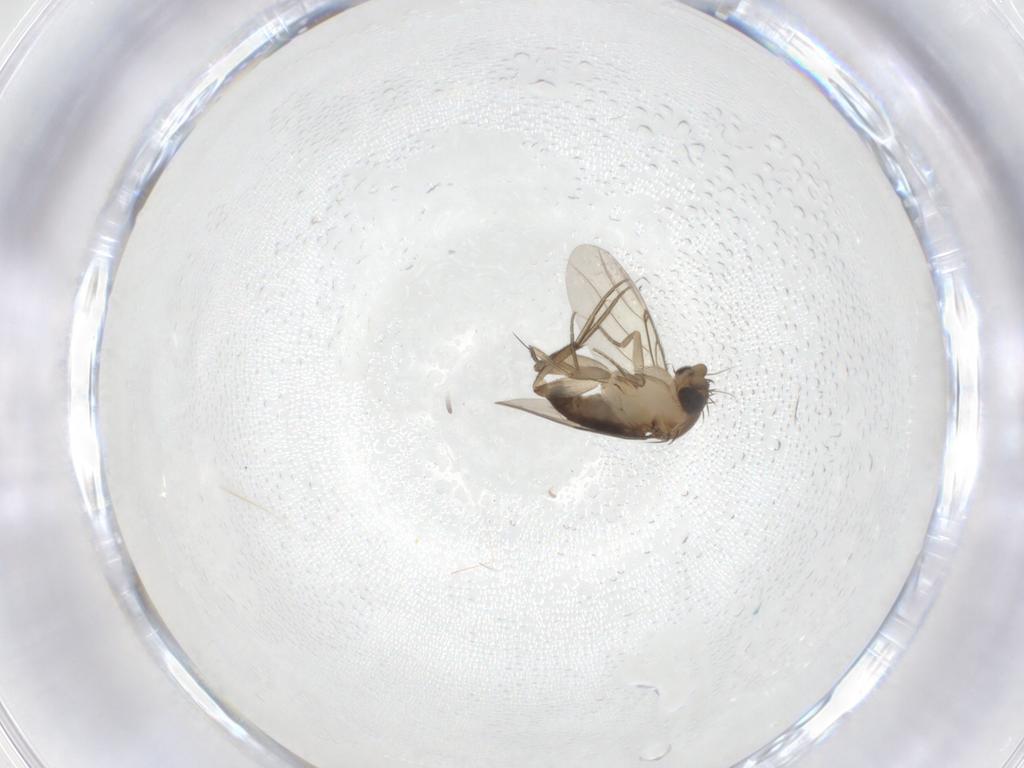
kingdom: Animalia
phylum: Arthropoda
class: Insecta
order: Diptera
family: Phoridae
